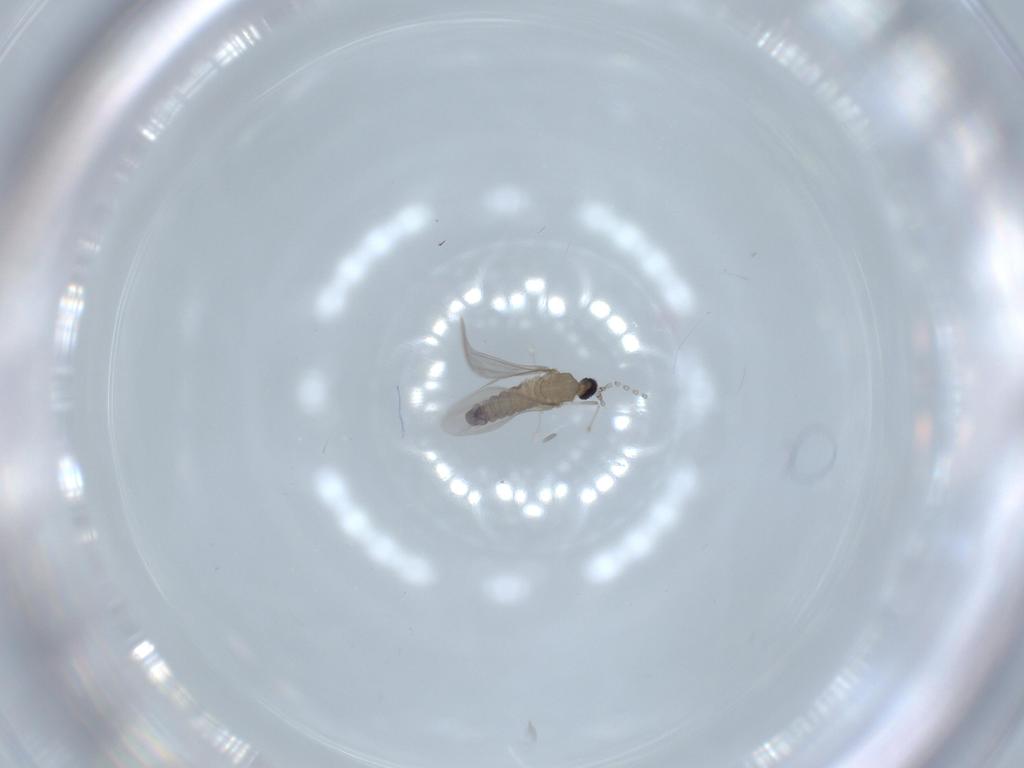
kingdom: Animalia
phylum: Arthropoda
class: Insecta
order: Diptera
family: Cecidomyiidae
